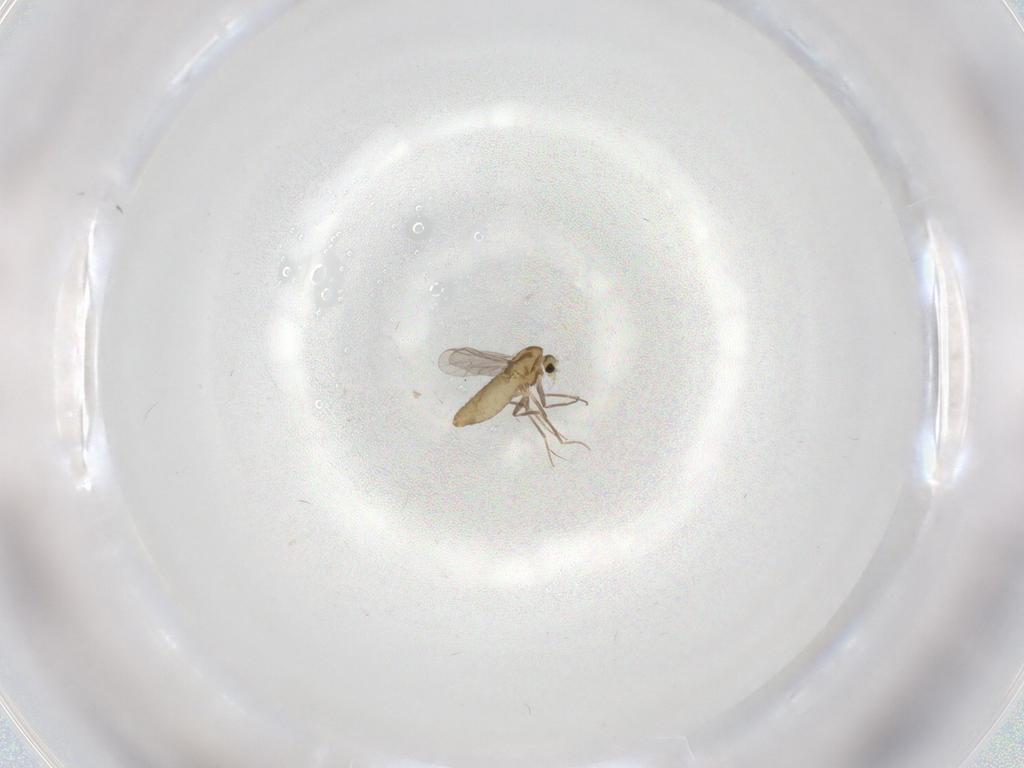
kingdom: Animalia
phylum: Arthropoda
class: Insecta
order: Diptera
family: Chironomidae
